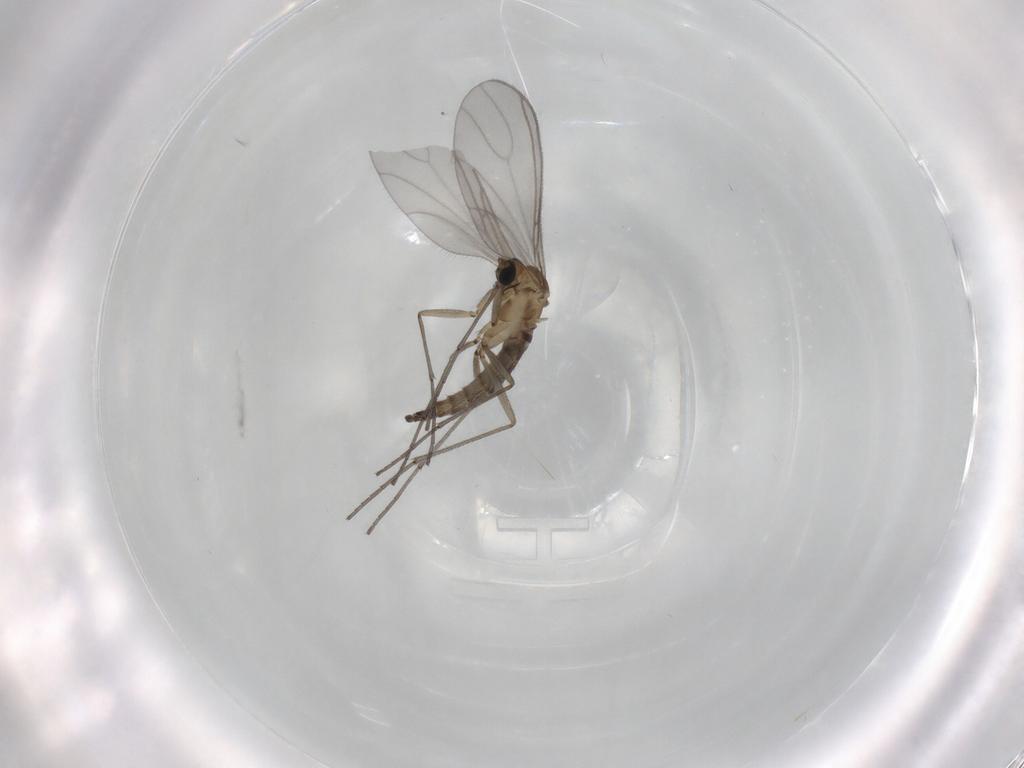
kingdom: Animalia
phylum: Arthropoda
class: Insecta
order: Diptera
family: Sciaridae
